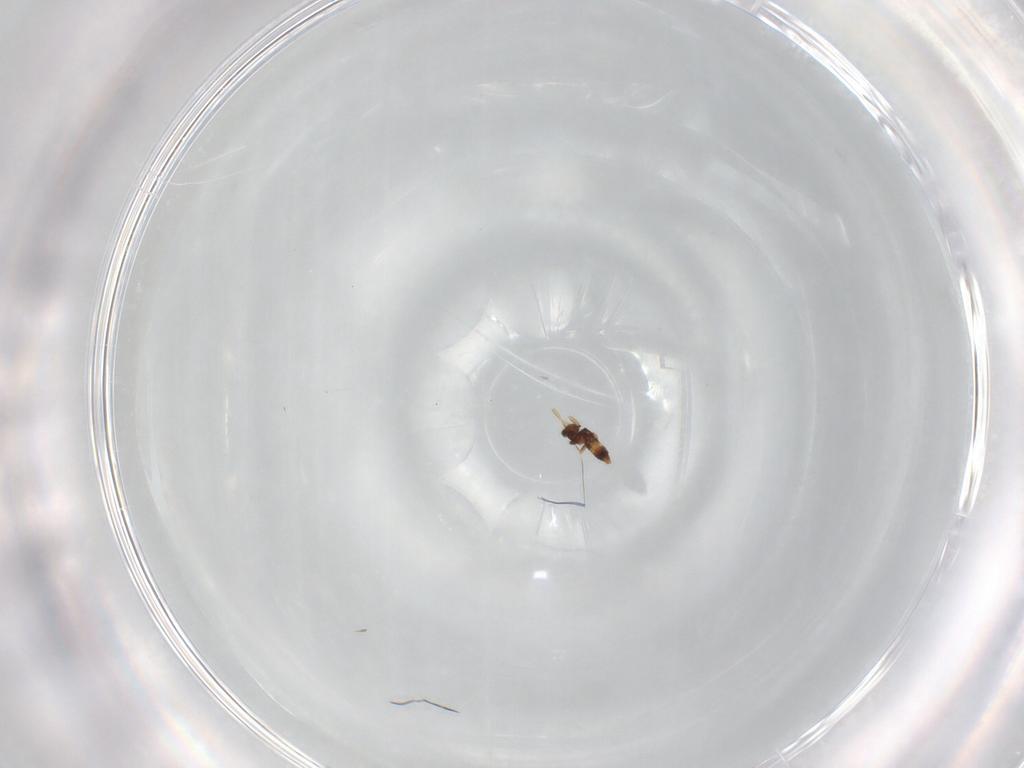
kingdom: Animalia
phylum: Arthropoda
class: Insecta
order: Thysanoptera
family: Thripidae
